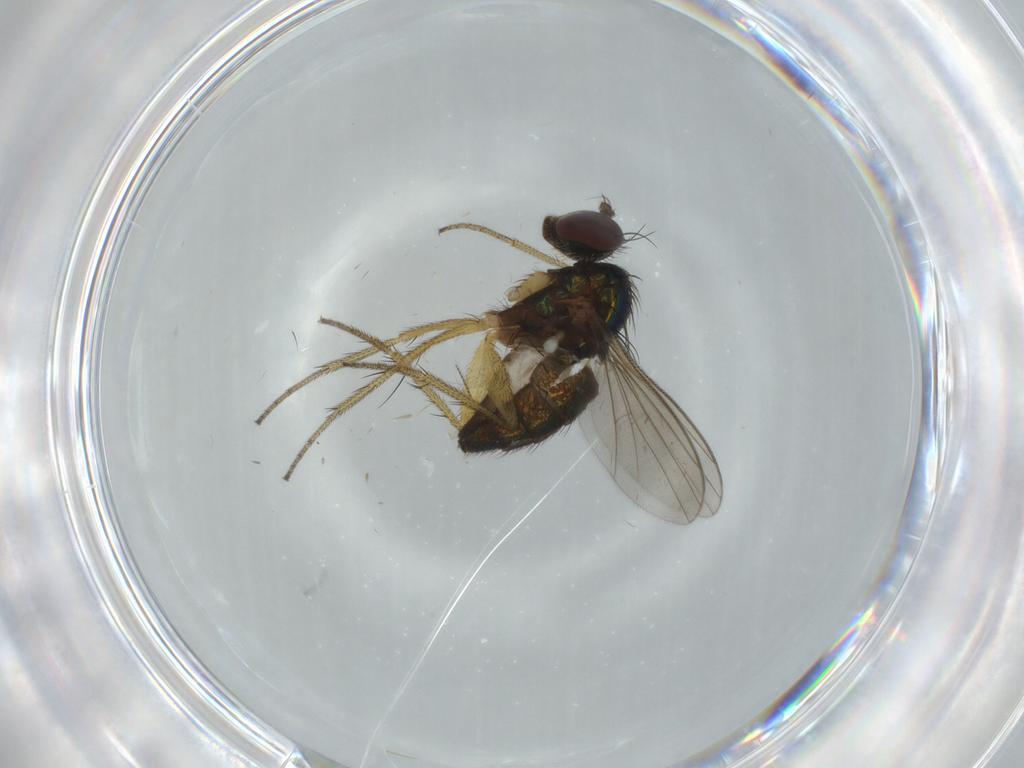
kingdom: Animalia
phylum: Arthropoda
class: Insecta
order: Diptera
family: Dolichopodidae
